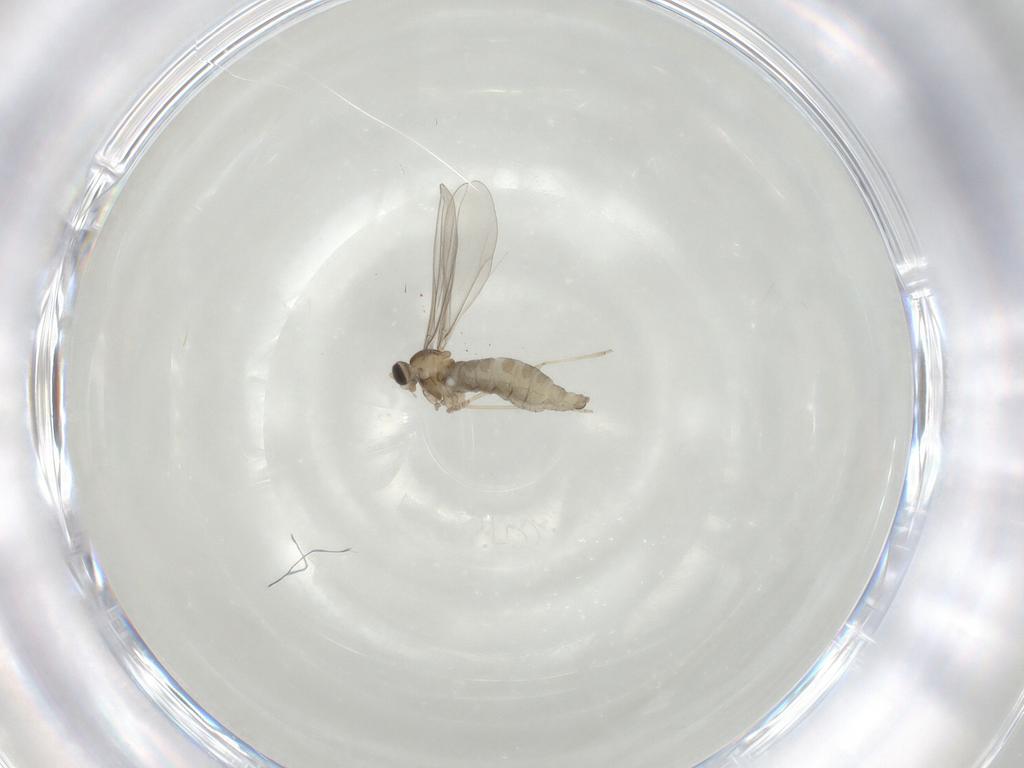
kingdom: Animalia
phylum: Arthropoda
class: Insecta
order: Diptera
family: Cecidomyiidae
